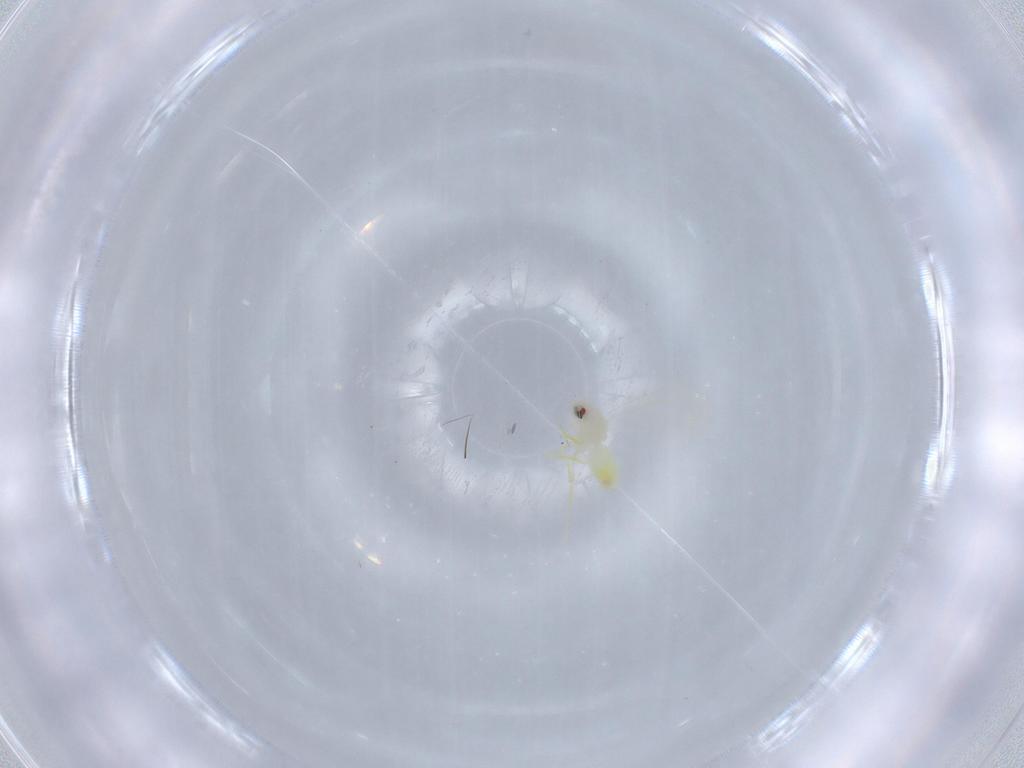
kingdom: Animalia
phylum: Arthropoda
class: Insecta
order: Hemiptera
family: Aleyrodidae
